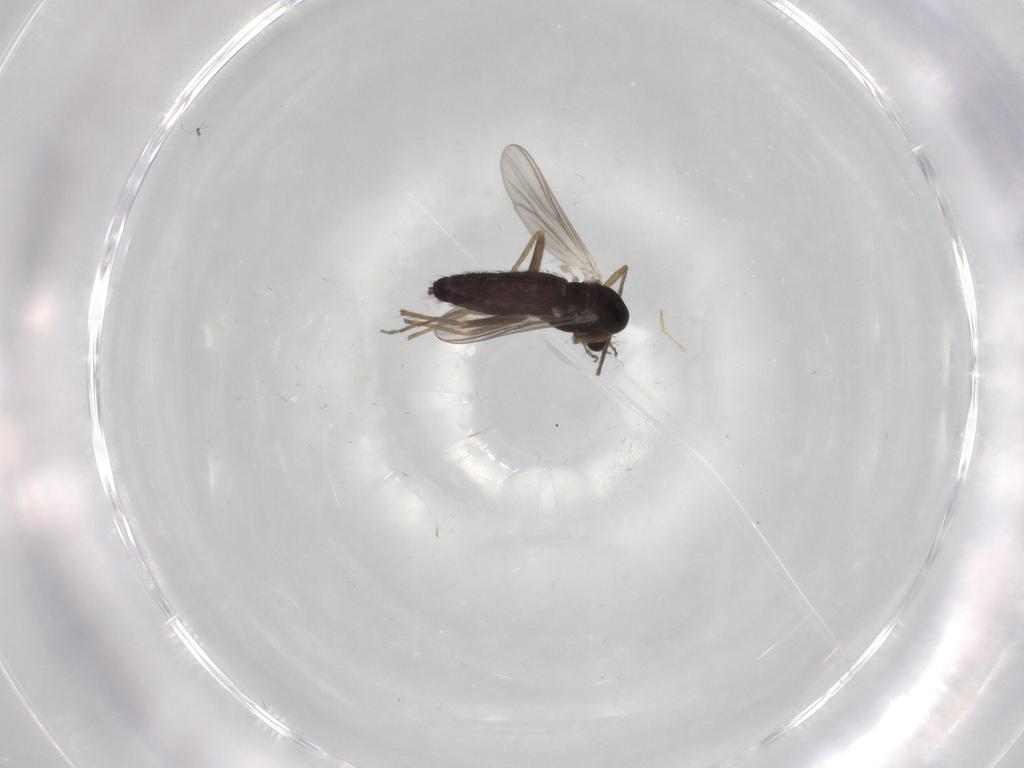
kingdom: Animalia
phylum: Arthropoda
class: Insecta
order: Diptera
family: Chironomidae
